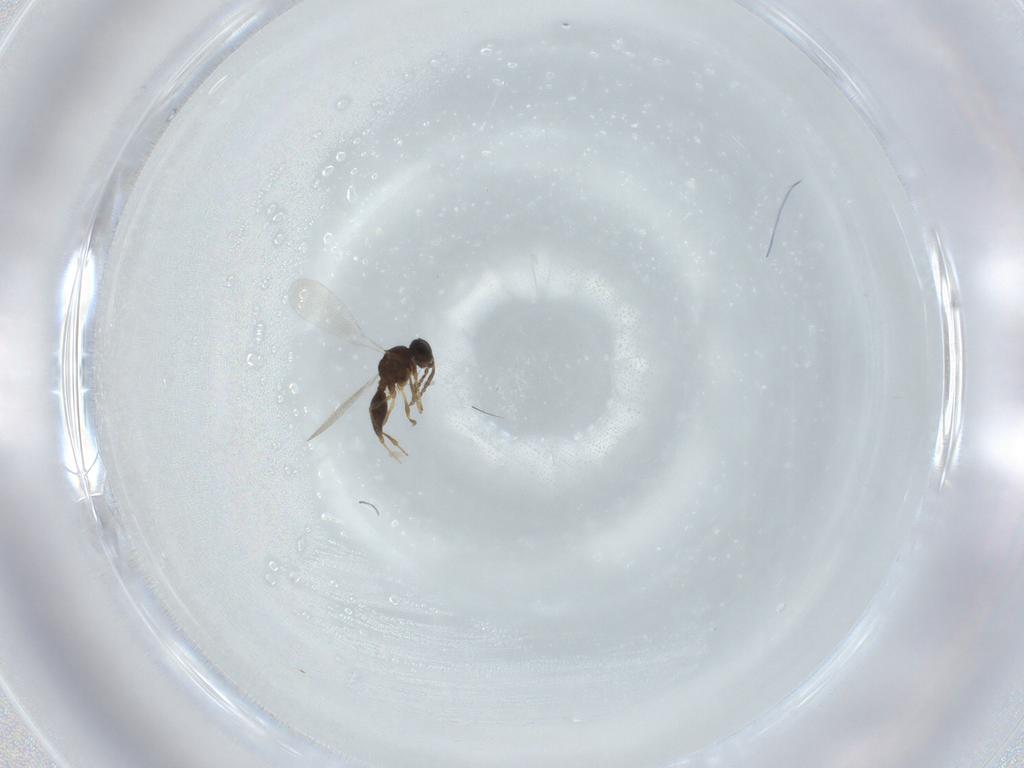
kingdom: Animalia
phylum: Arthropoda
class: Insecta
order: Diptera
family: Mythicomyiidae
